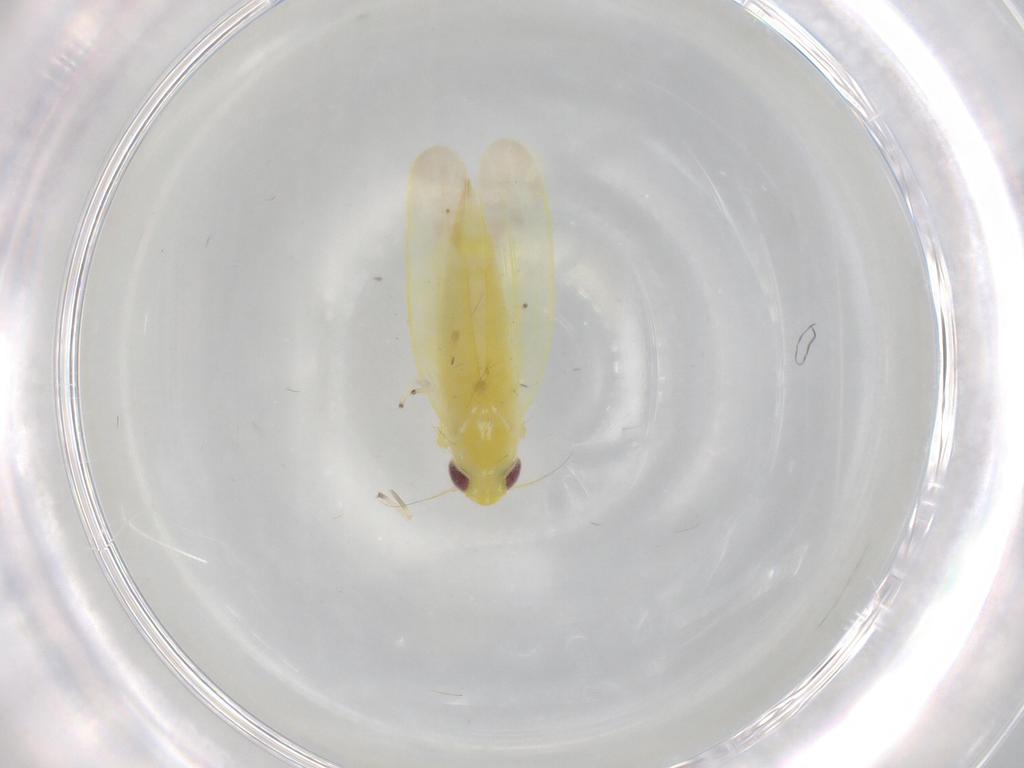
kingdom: Animalia
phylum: Arthropoda
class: Insecta
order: Hemiptera
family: Cicadellidae
